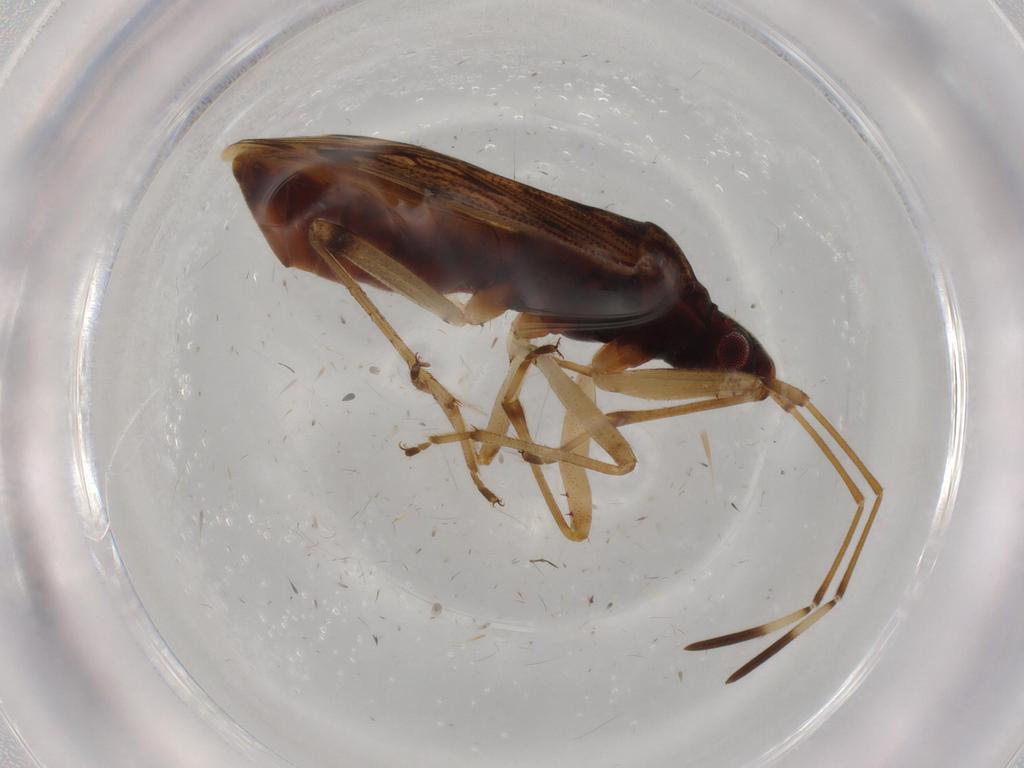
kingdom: Animalia
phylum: Arthropoda
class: Insecta
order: Hemiptera
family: Rhyparochromidae
